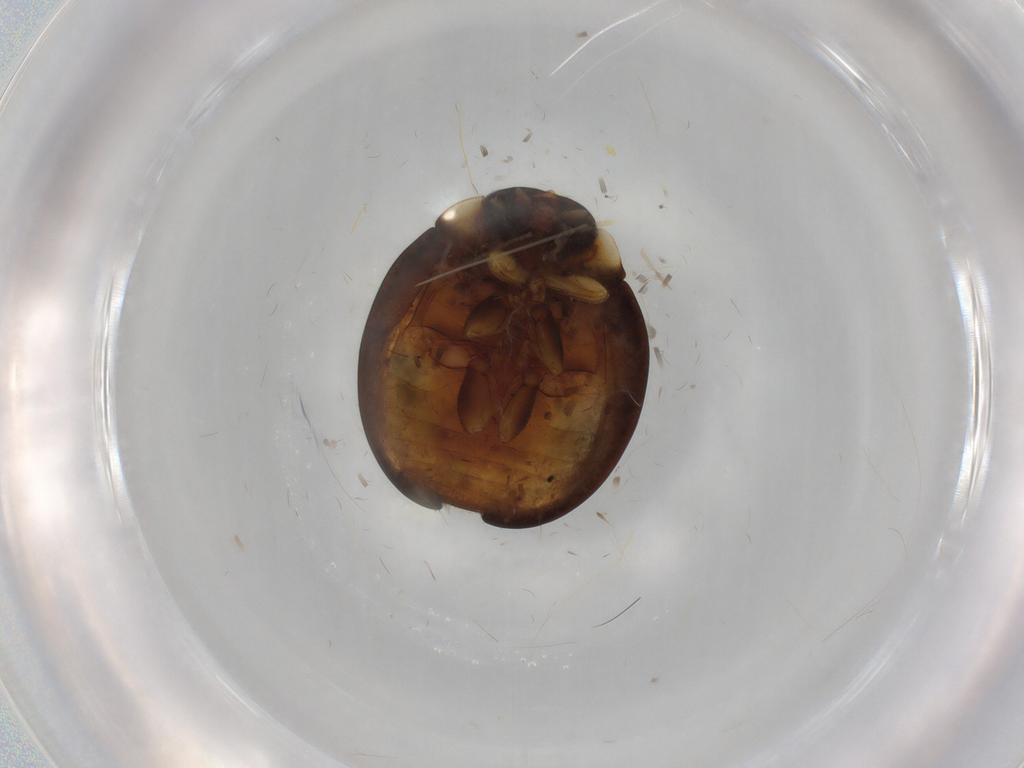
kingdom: Animalia
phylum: Arthropoda
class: Insecta
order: Coleoptera
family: Coccinellidae
